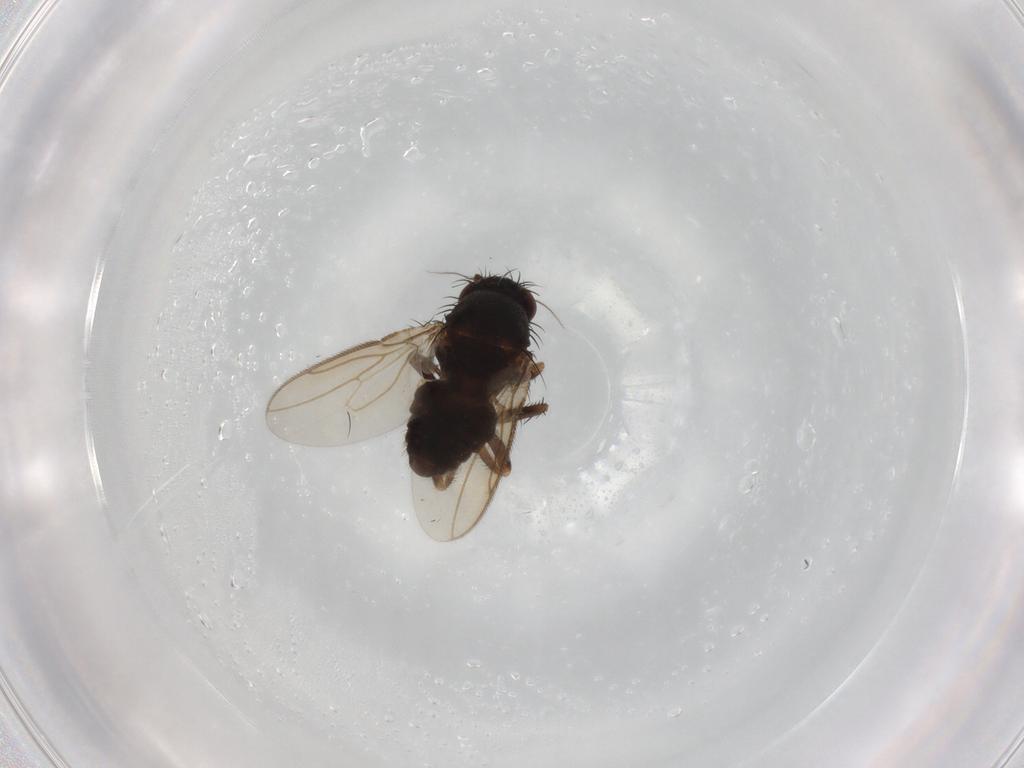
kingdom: Animalia
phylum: Arthropoda
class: Insecta
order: Diptera
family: Sphaeroceridae
